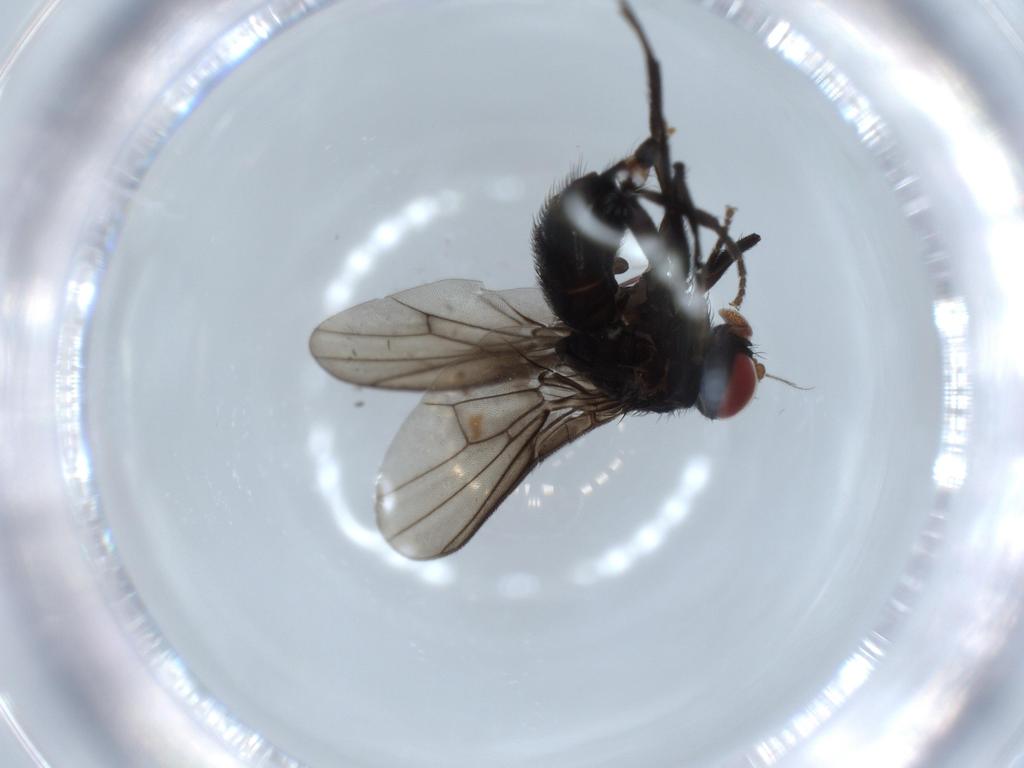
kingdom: Animalia
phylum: Arthropoda
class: Insecta
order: Diptera
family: Agromyzidae
